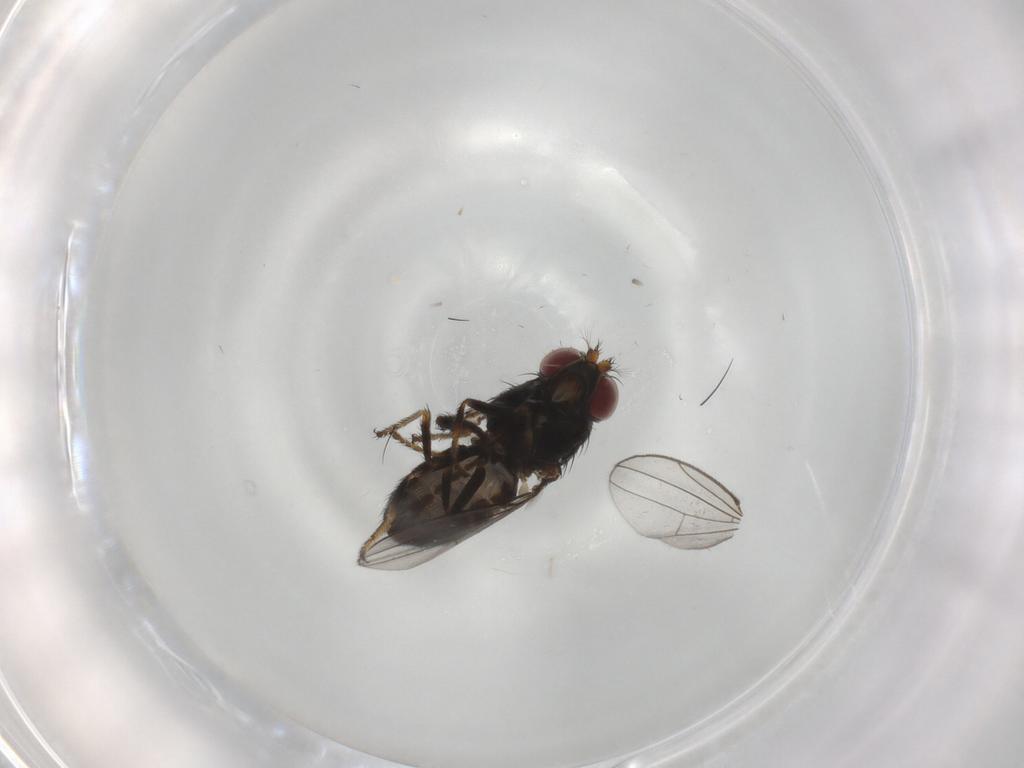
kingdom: Animalia
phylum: Arthropoda
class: Insecta
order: Diptera
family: Ephydridae
